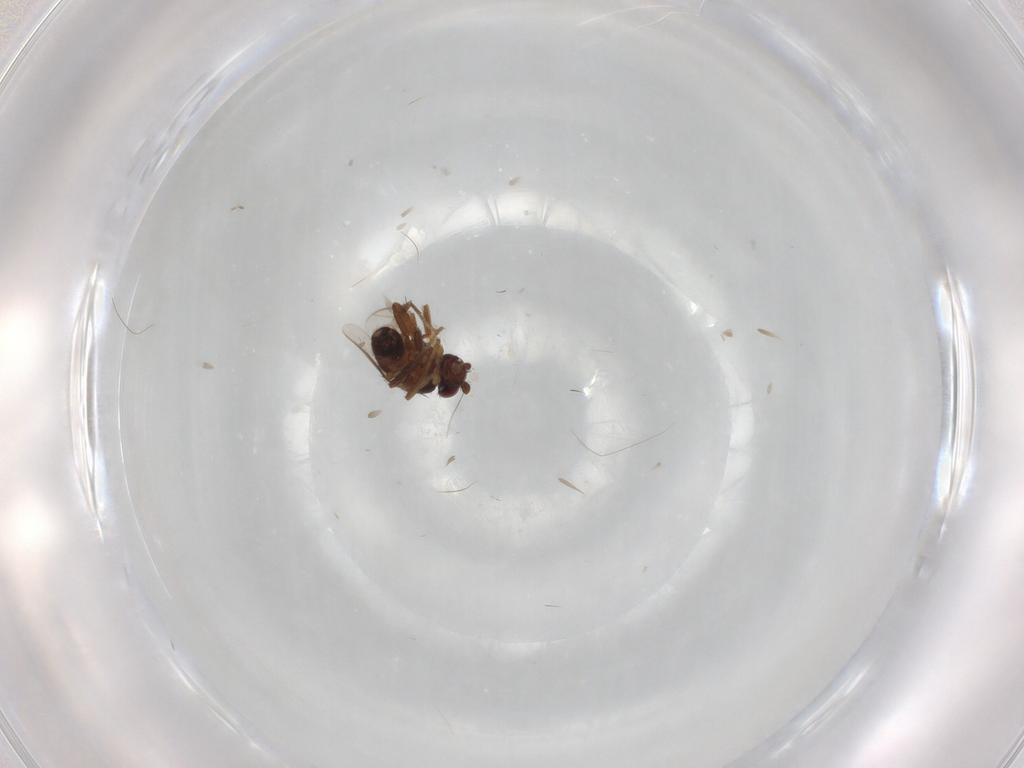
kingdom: Animalia
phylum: Arthropoda
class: Insecta
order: Diptera
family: Sphaeroceridae
